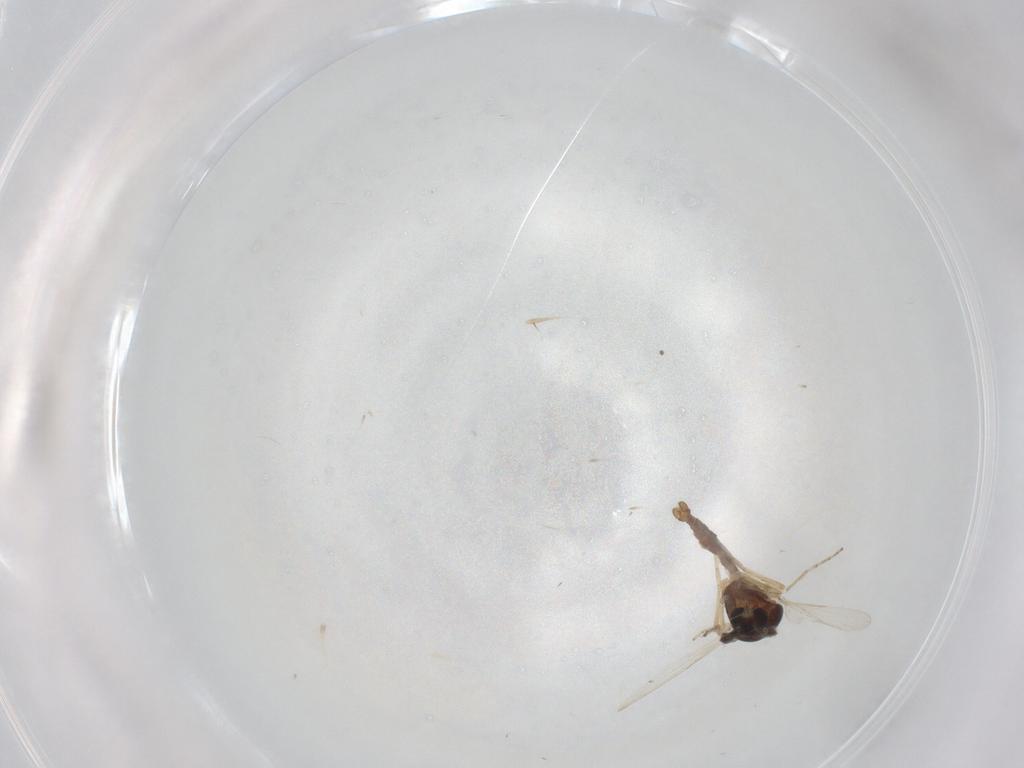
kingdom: Animalia
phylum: Arthropoda
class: Insecta
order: Diptera
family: Ceratopogonidae
